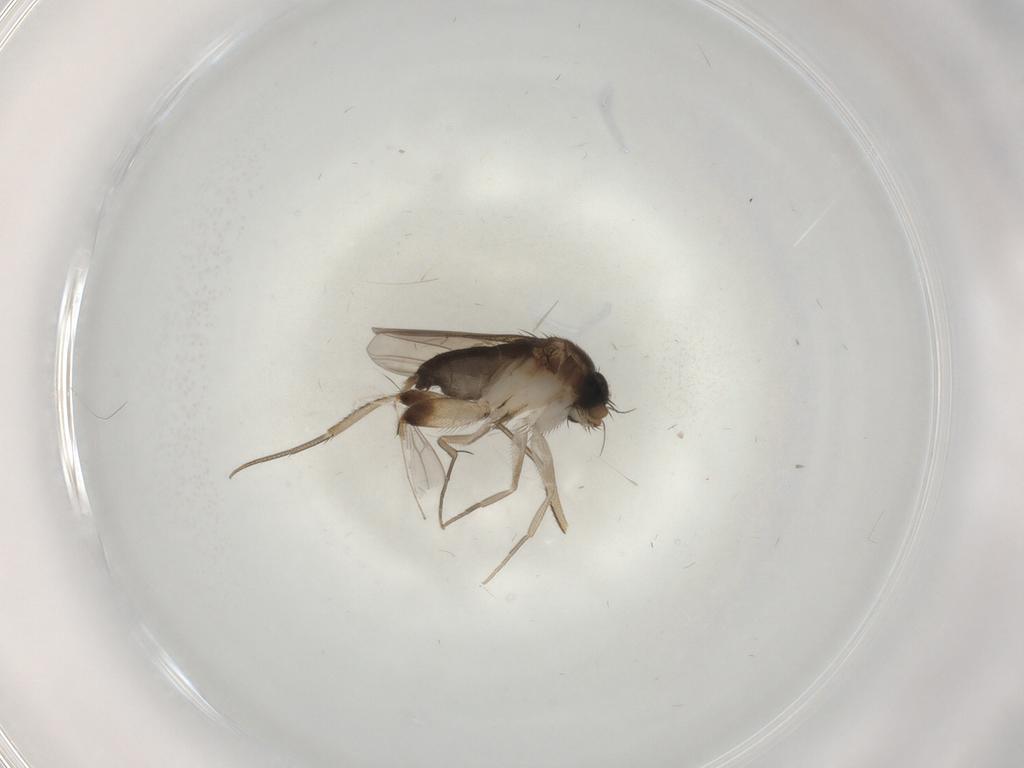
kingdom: Animalia
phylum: Arthropoda
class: Insecta
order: Diptera
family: Phoridae
